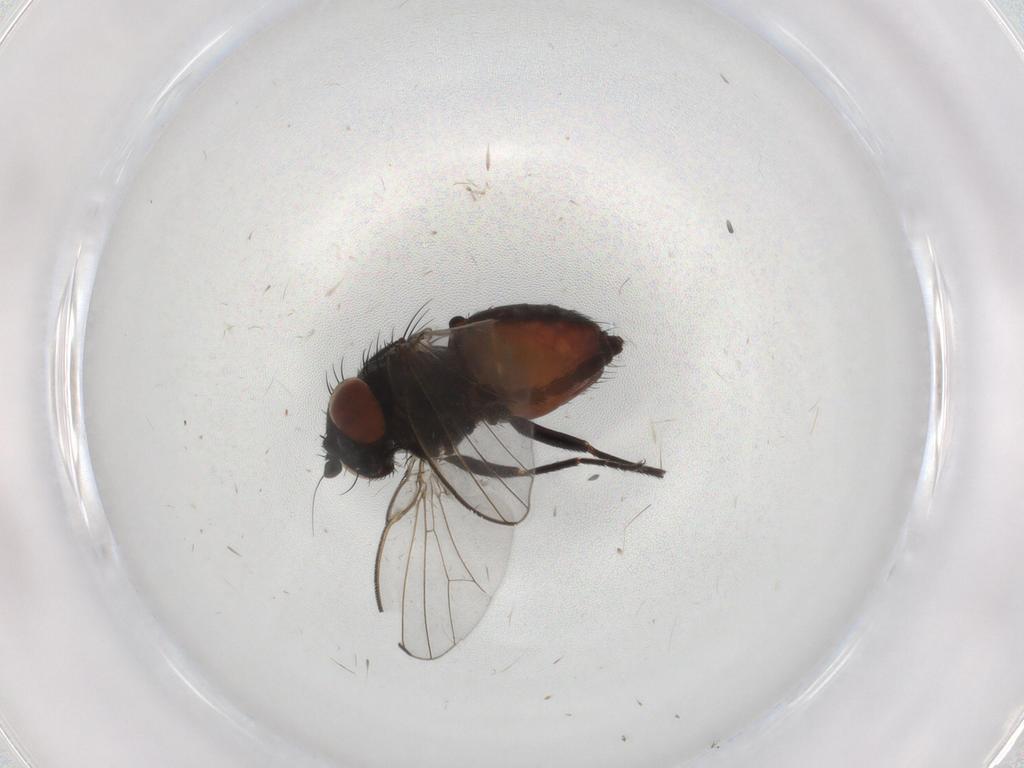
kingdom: Animalia
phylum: Arthropoda
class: Insecta
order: Diptera
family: Milichiidae
